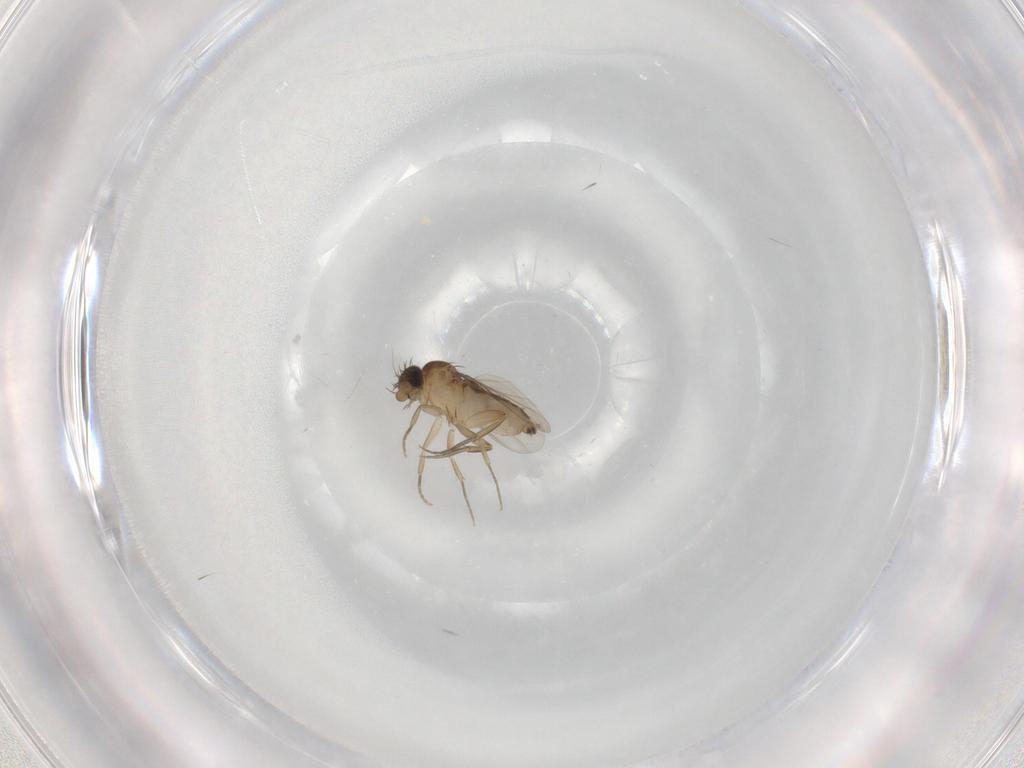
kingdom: Animalia
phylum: Arthropoda
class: Insecta
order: Diptera
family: Phoridae
